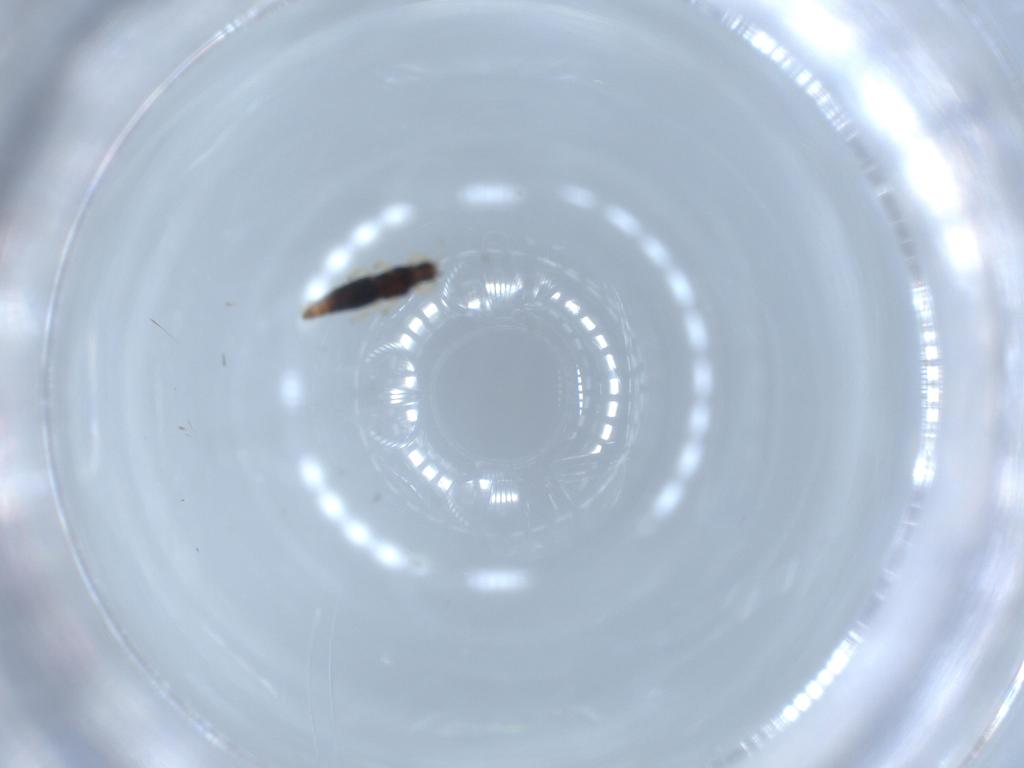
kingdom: Animalia
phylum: Arthropoda
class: Insecta
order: Thysanoptera
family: Thripidae
